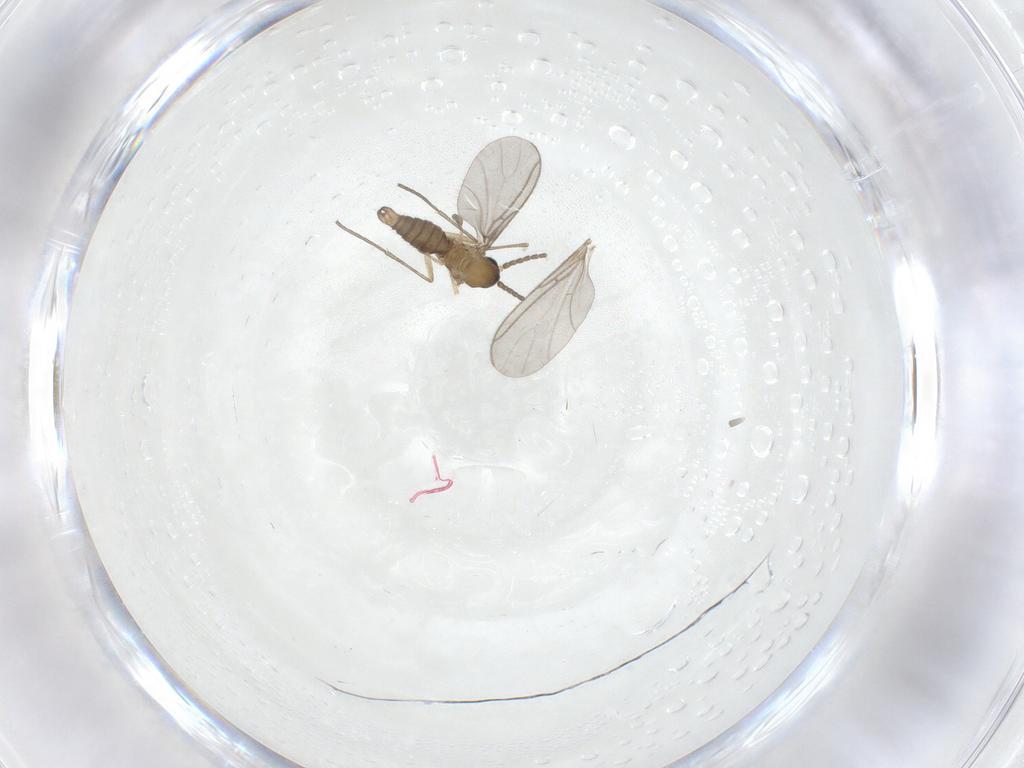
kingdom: Animalia
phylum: Arthropoda
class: Insecta
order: Diptera
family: Sciaridae
